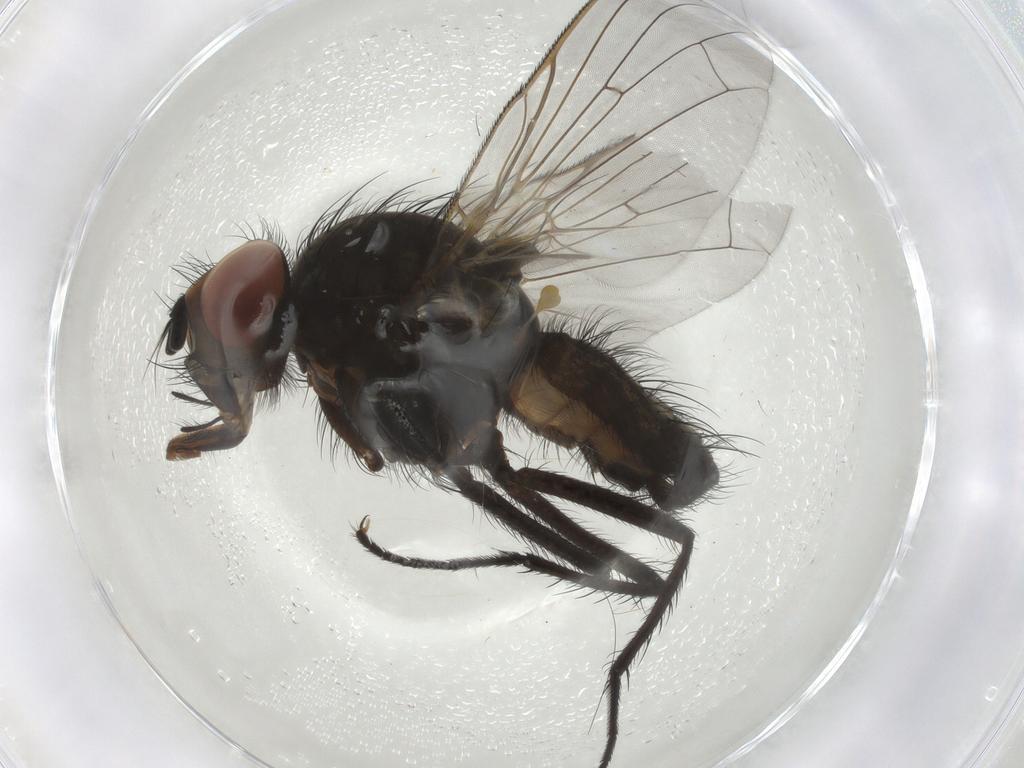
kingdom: Animalia
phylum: Arthropoda
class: Insecta
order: Diptera
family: Anthomyiidae
